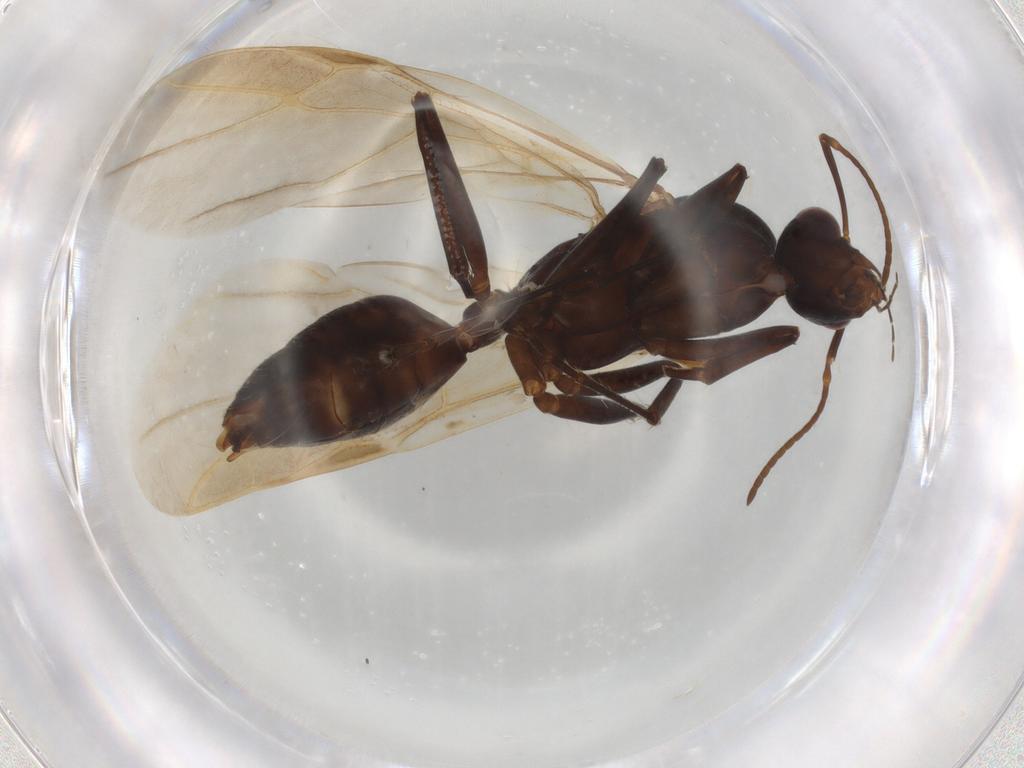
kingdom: Animalia
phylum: Arthropoda
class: Insecta
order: Hymenoptera
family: Formicidae
